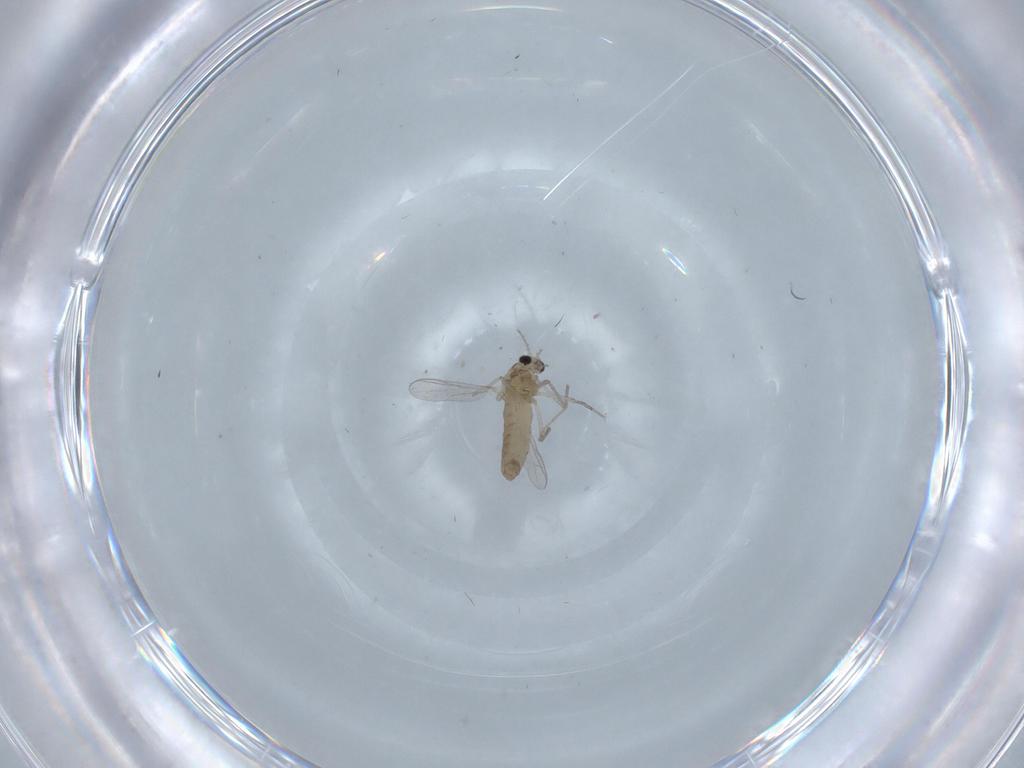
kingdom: Animalia
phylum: Arthropoda
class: Insecta
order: Diptera
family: Chironomidae
